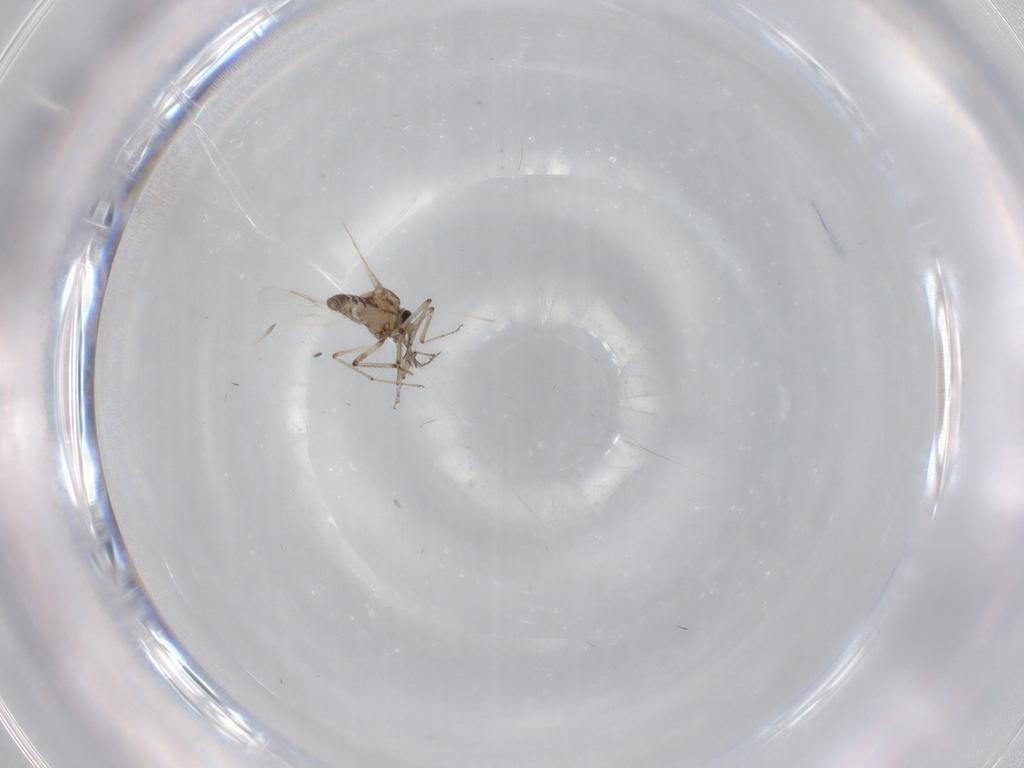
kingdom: Animalia
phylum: Arthropoda
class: Insecta
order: Diptera
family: Ceratopogonidae
